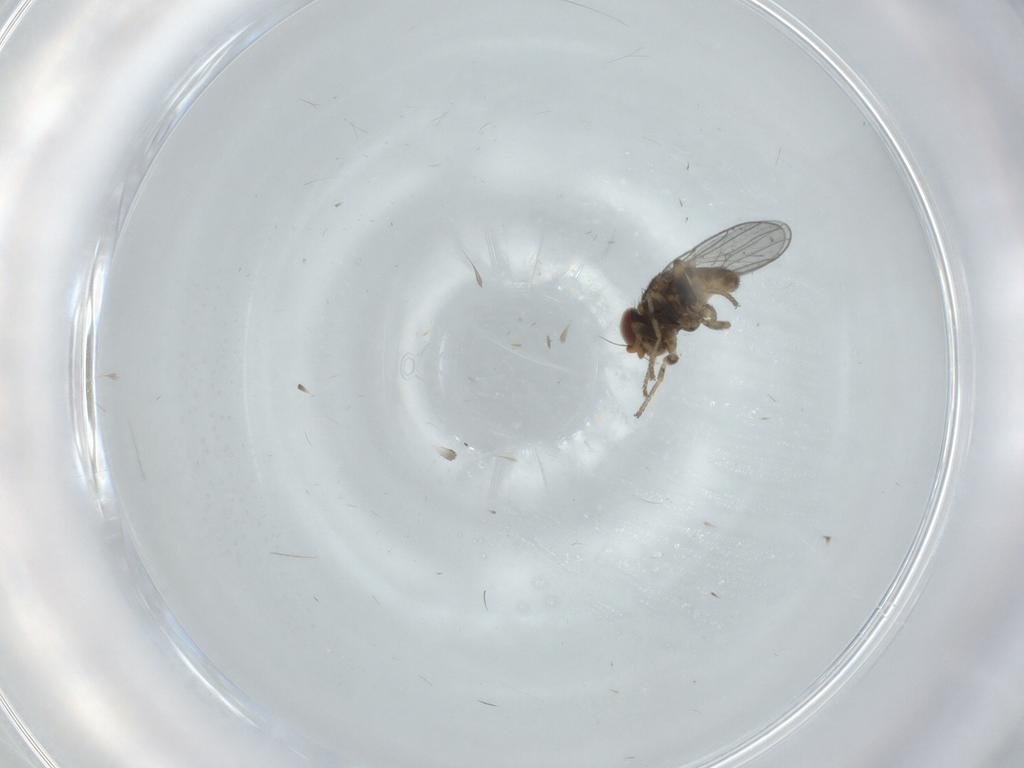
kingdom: Animalia
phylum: Arthropoda
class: Insecta
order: Diptera
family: Chloropidae
